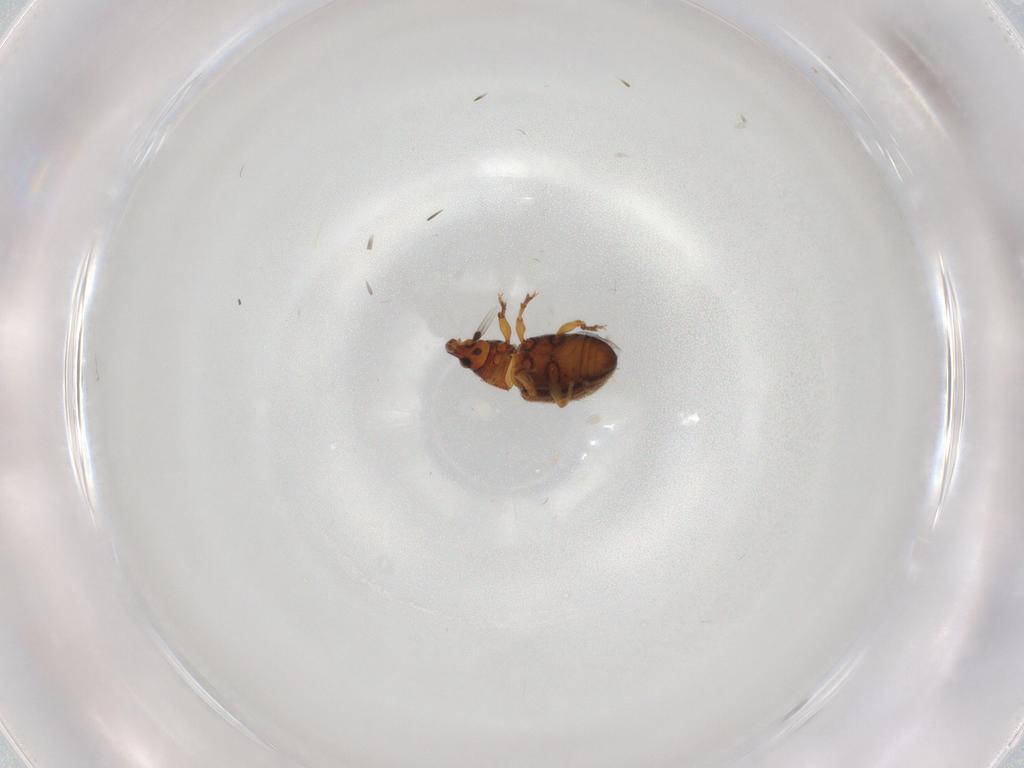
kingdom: Animalia
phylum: Arthropoda
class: Insecta
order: Coleoptera
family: Curculionidae
